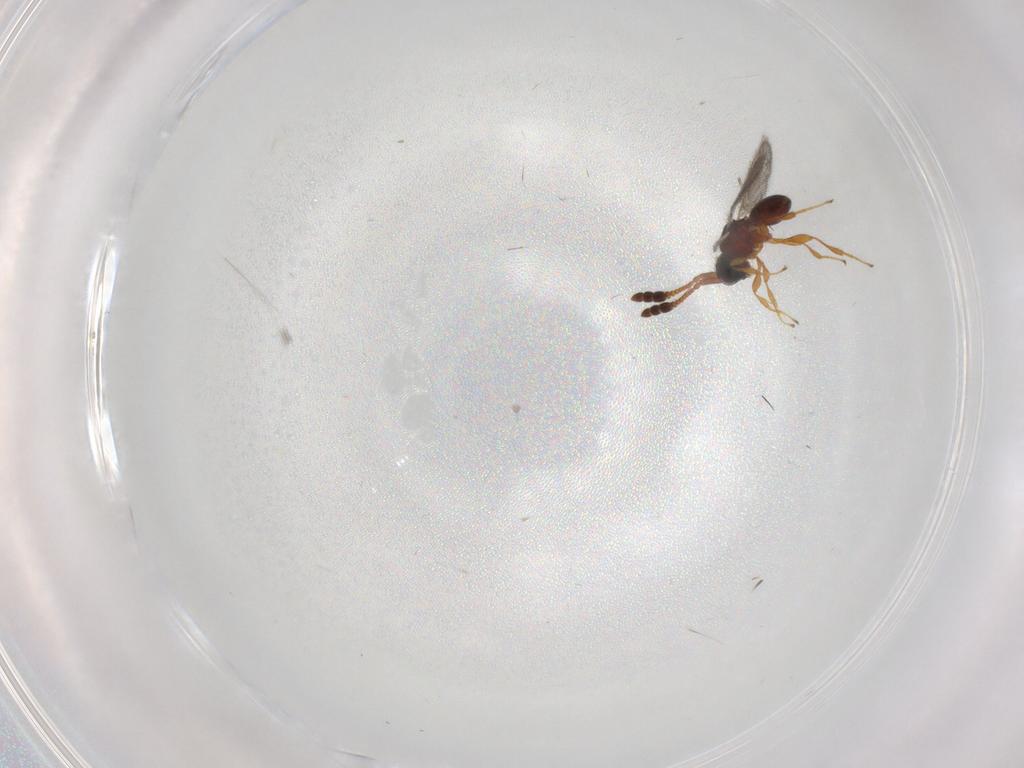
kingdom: Animalia
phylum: Arthropoda
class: Insecta
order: Hymenoptera
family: Diapriidae
